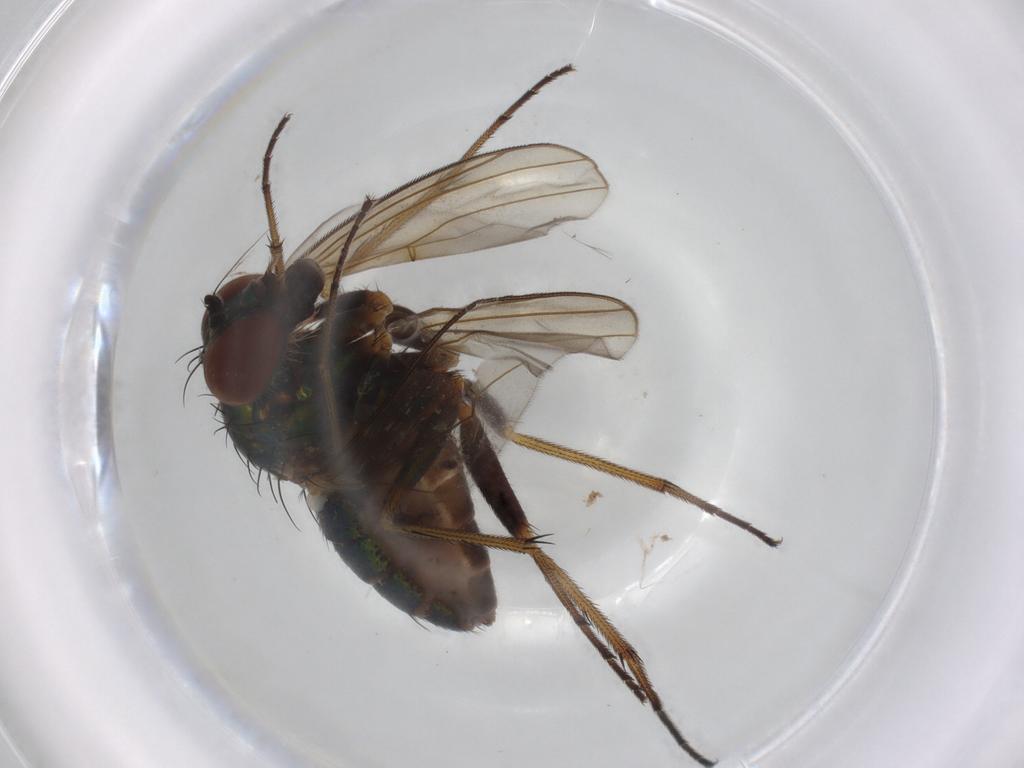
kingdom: Animalia
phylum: Arthropoda
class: Insecta
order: Diptera
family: Dolichopodidae
